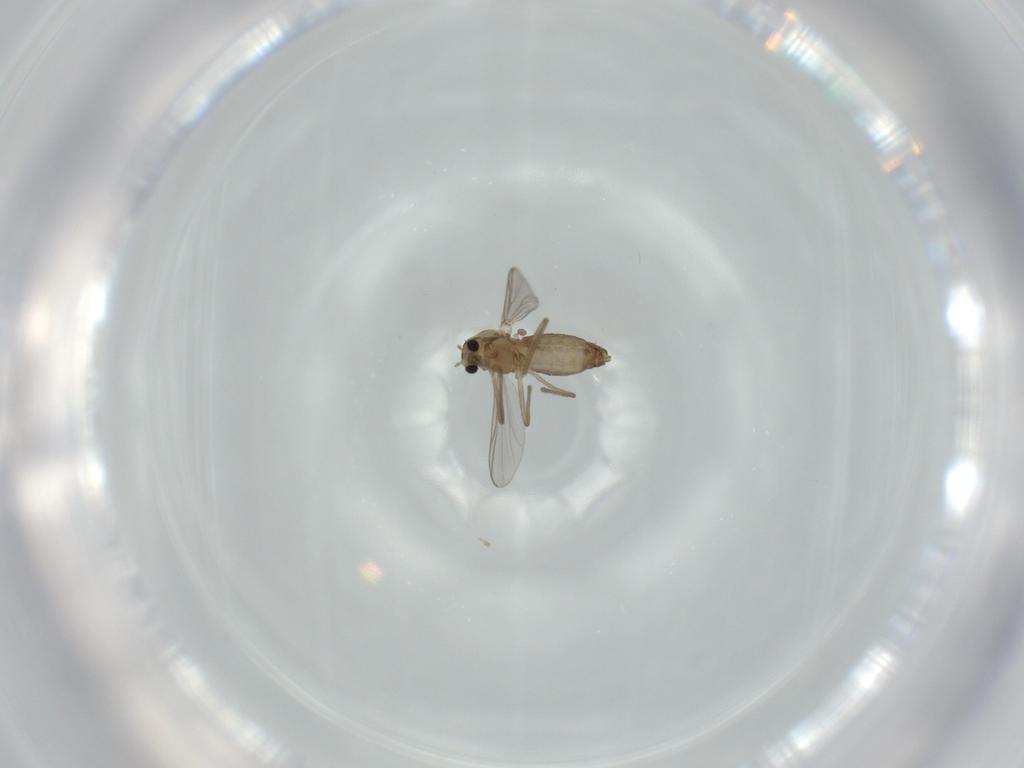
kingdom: Animalia
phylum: Arthropoda
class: Insecta
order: Diptera
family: Chironomidae
